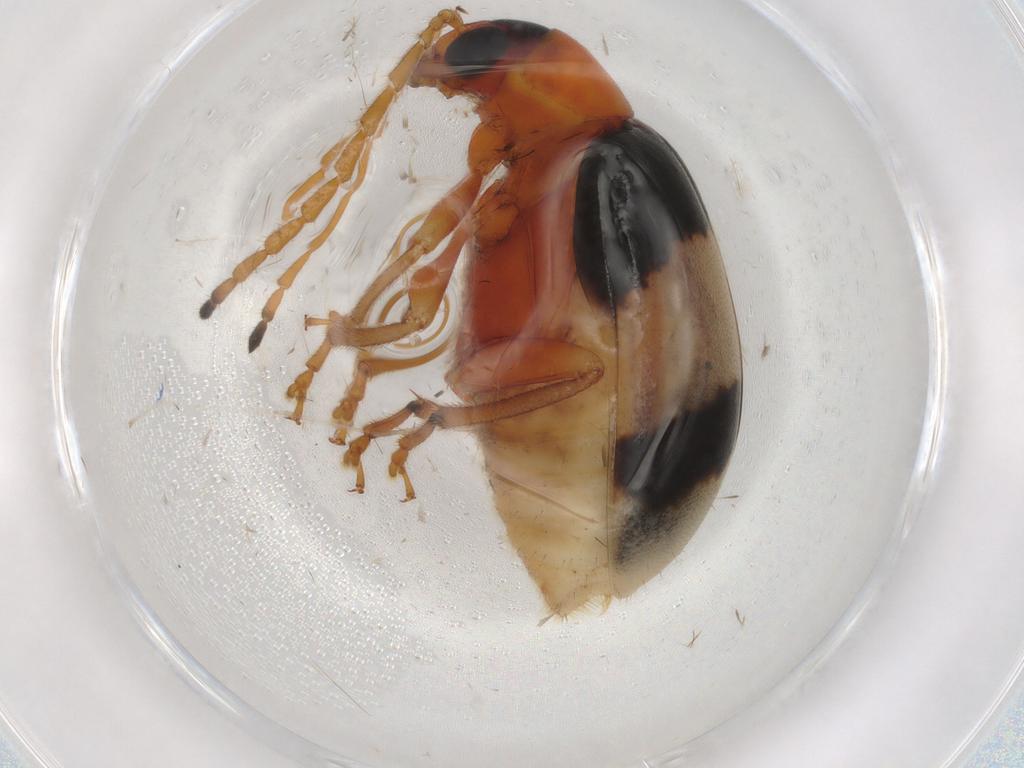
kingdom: Animalia
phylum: Arthropoda
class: Insecta
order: Coleoptera
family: Chrysomelidae
